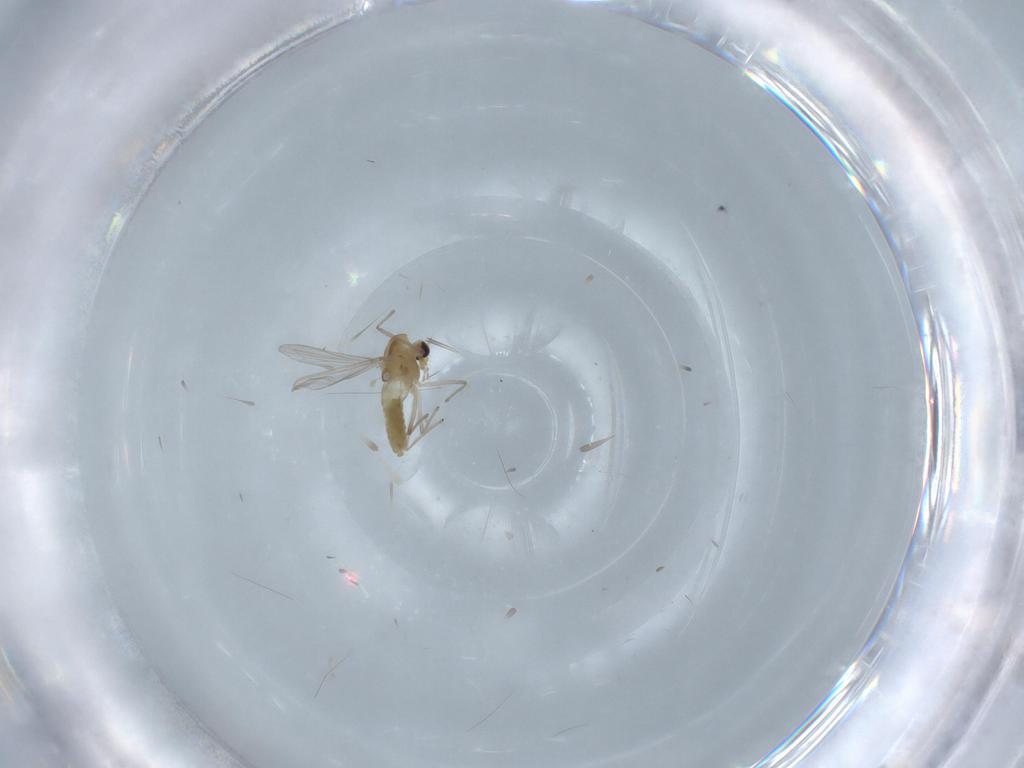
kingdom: Animalia
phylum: Arthropoda
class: Insecta
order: Diptera
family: Chironomidae
